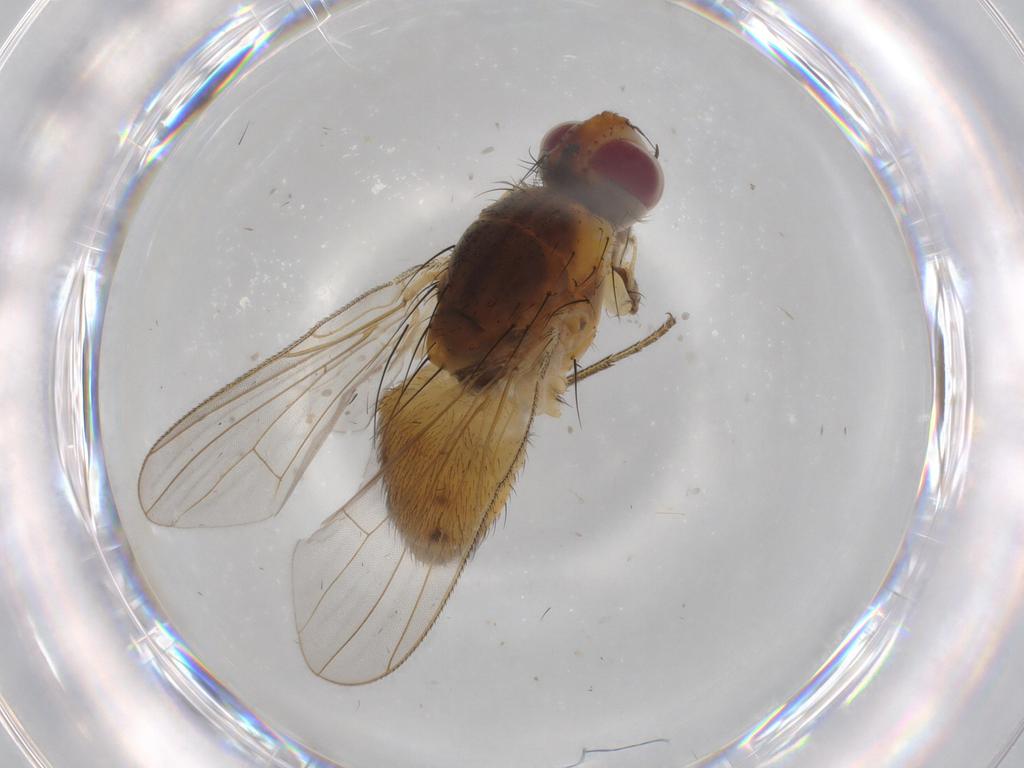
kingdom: Animalia
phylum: Arthropoda
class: Insecta
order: Diptera
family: Muscidae
